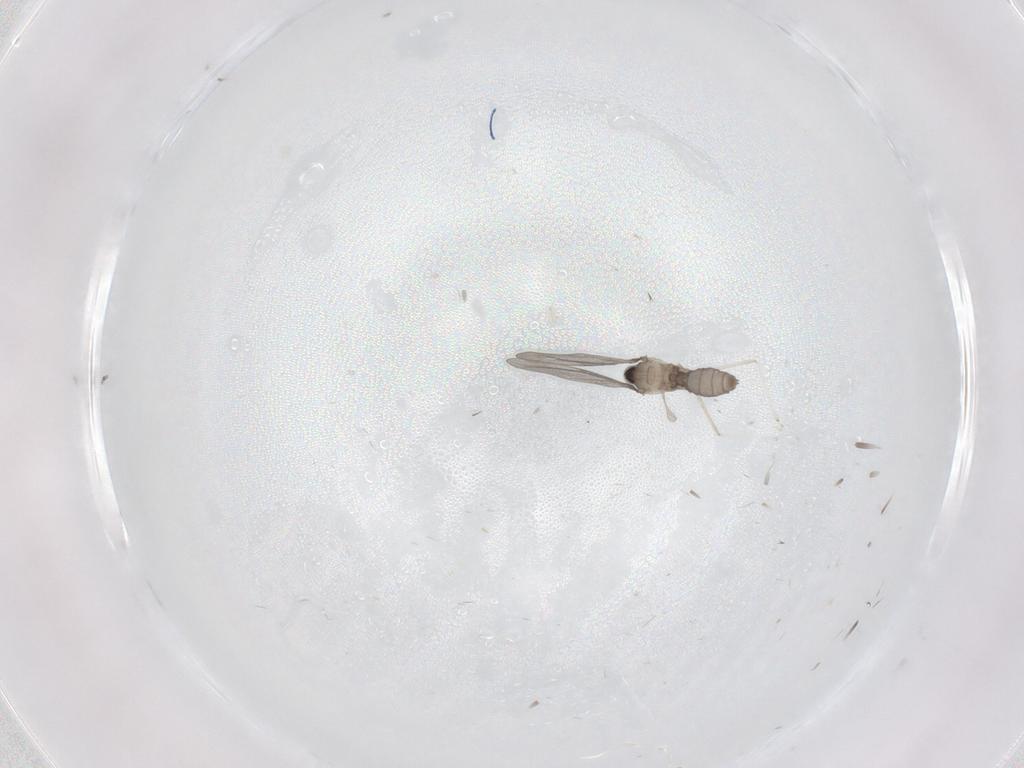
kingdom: Animalia
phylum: Arthropoda
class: Insecta
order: Diptera
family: Cecidomyiidae
